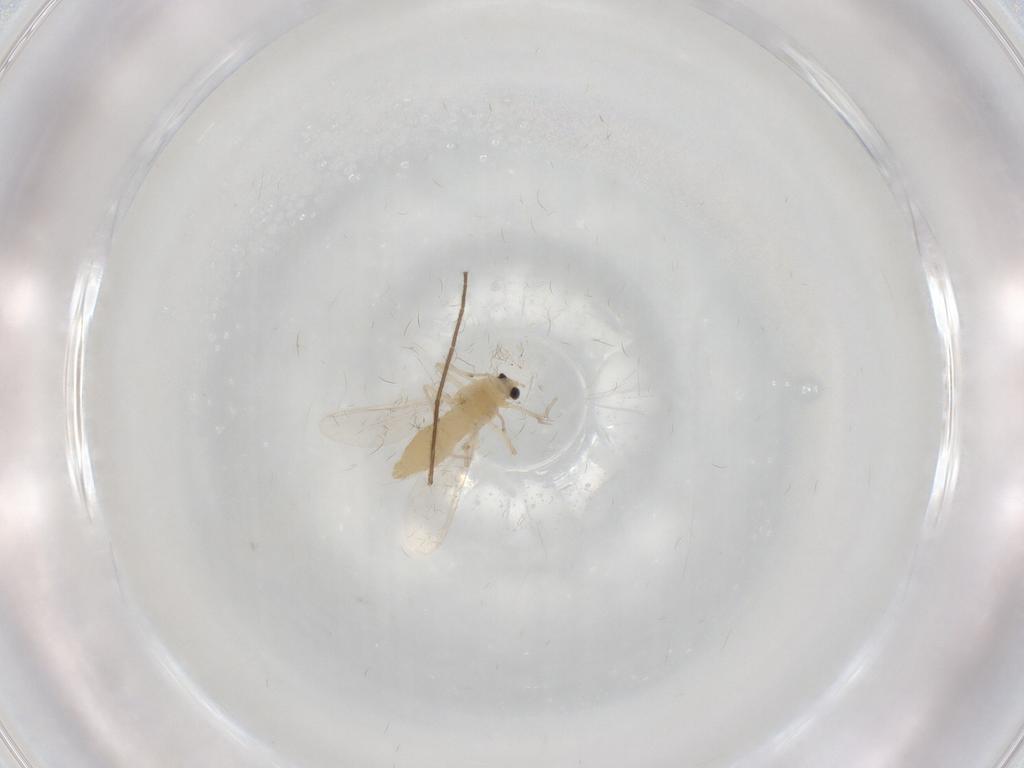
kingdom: Animalia
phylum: Arthropoda
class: Insecta
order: Diptera
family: Chironomidae
